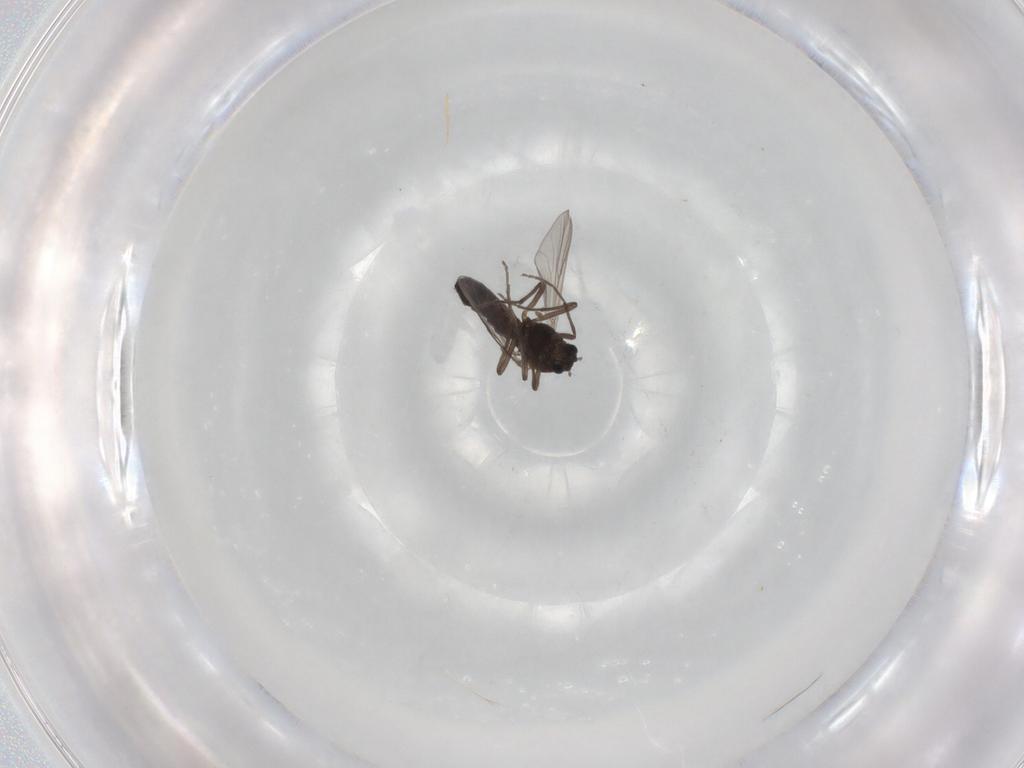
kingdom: Animalia
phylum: Arthropoda
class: Insecta
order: Diptera
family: Chironomidae
